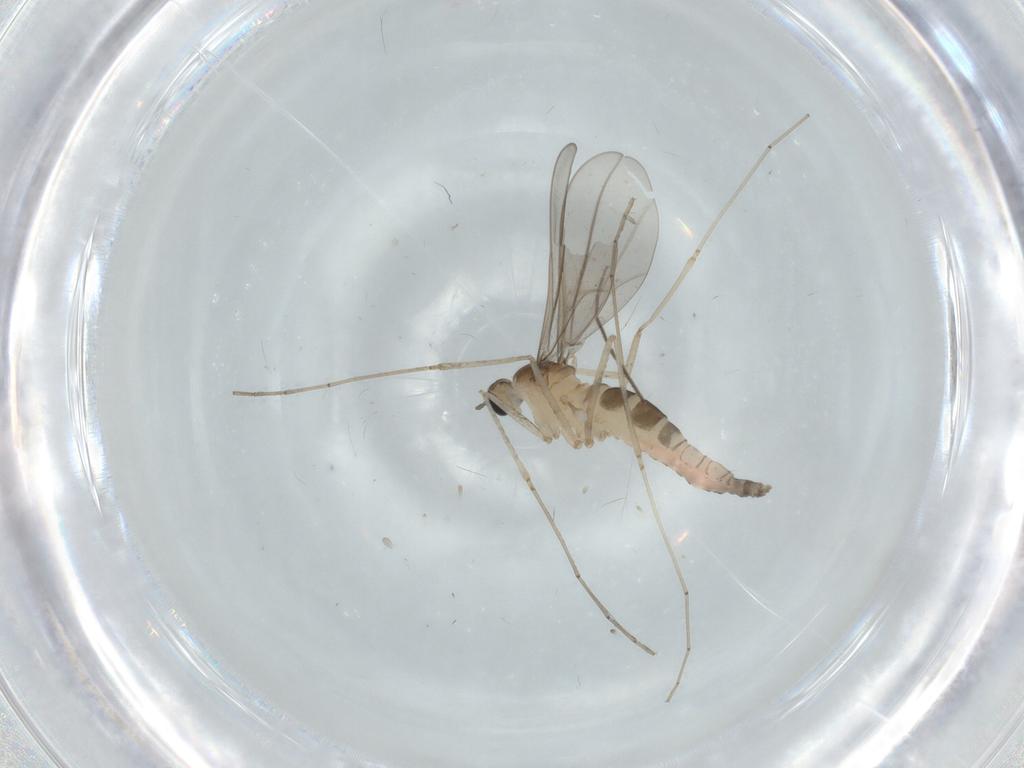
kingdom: Animalia
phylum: Arthropoda
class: Insecta
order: Diptera
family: Cecidomyiidae
